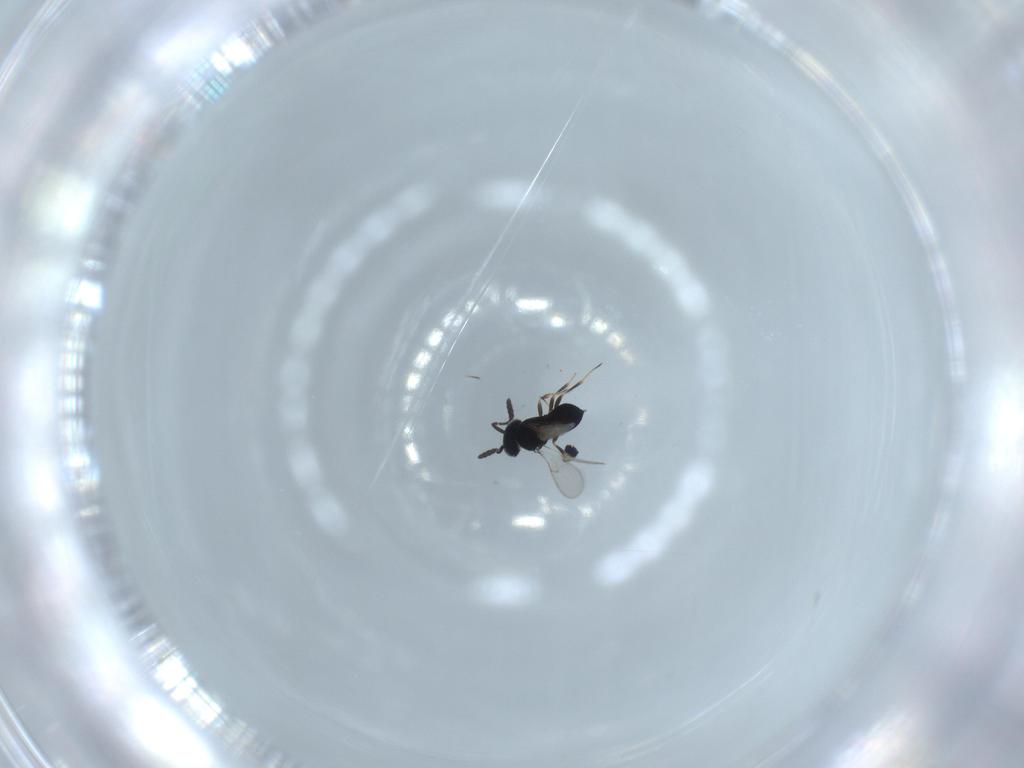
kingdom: Animalia
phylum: Arthropoda
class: Insecta
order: Hymenoptera
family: Scelionidae
